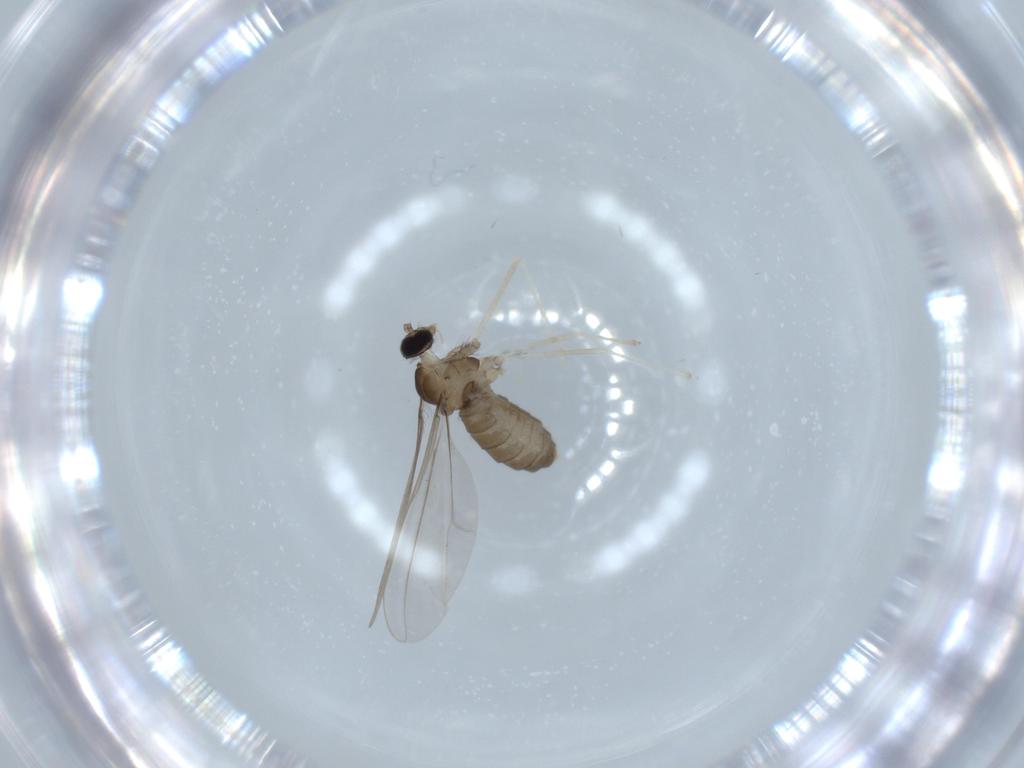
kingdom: Animalia
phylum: Arthropoda
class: Insecta
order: Diptera
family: Cecidomyiidae
